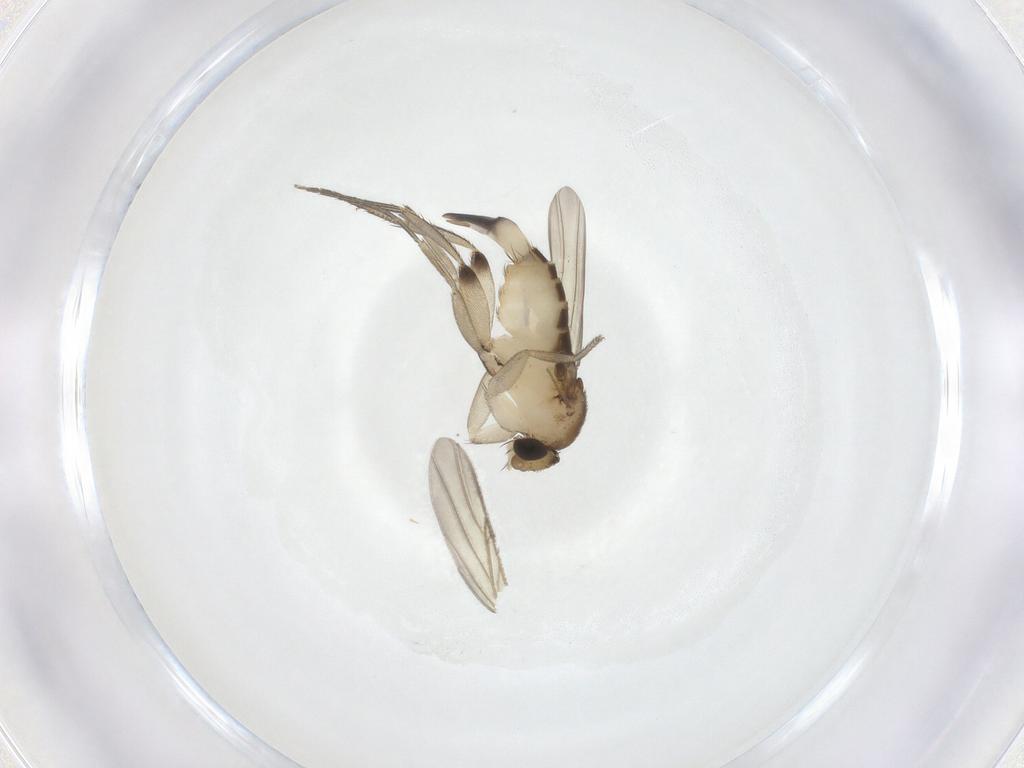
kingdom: Animalia
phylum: Arthropoda
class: Insecta
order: Diptera
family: Phoridae
